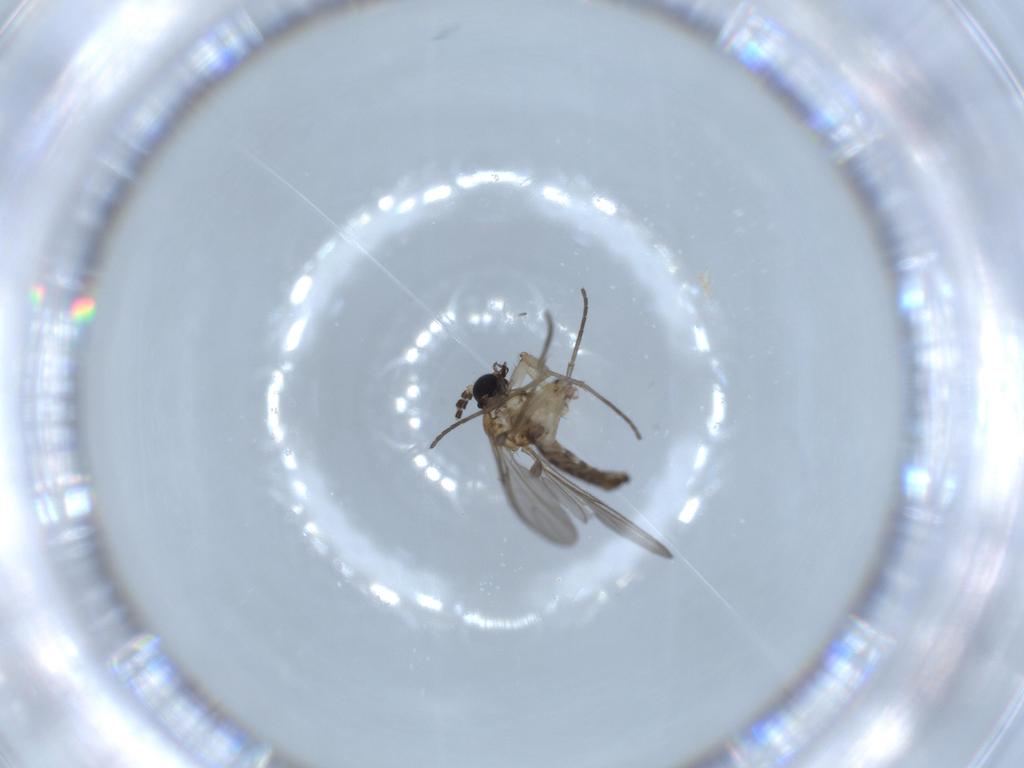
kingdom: Animalia
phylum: Arthropoda
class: Insecta
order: Diptera
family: Sciaridae
